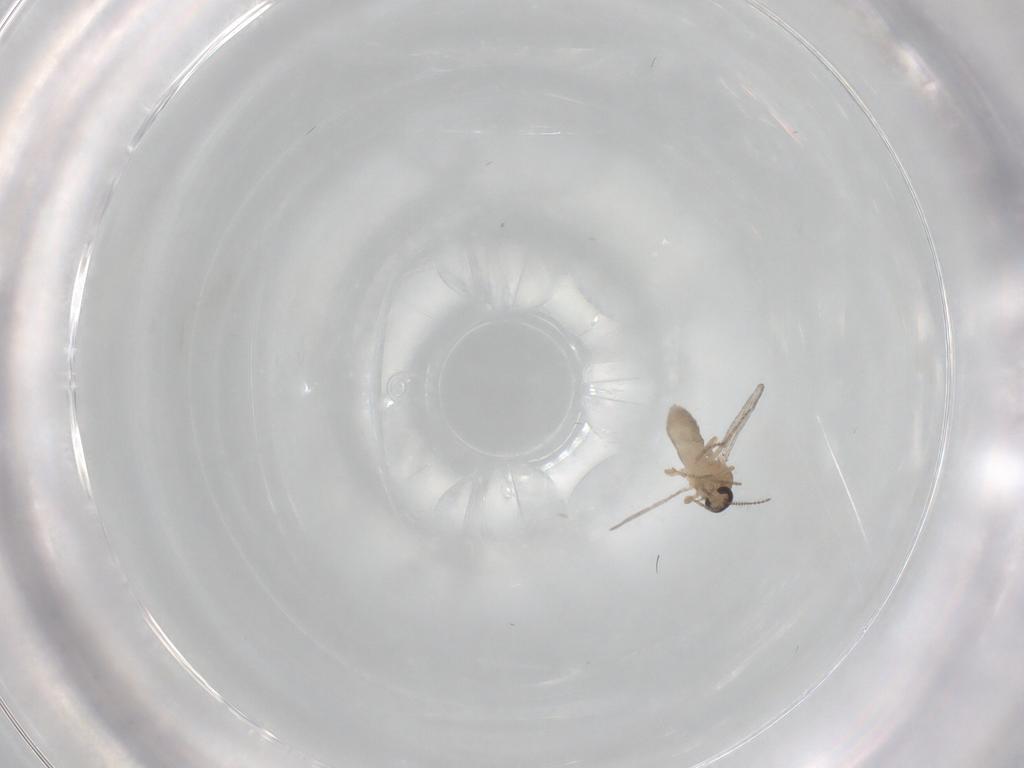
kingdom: Animalia
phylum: Arthropoda
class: Insecta
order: Diptera
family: Ceratopogonidae
